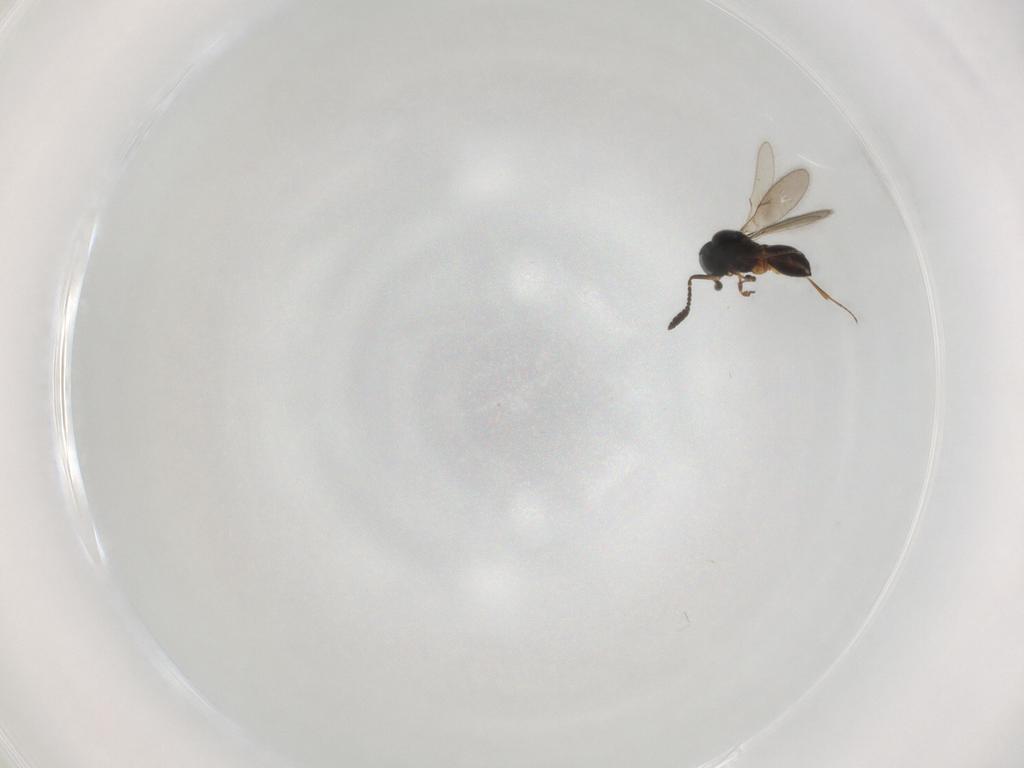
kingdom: Animalia
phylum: Arthropoda
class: Insecta
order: Hymenoptera
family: Scelionidae
